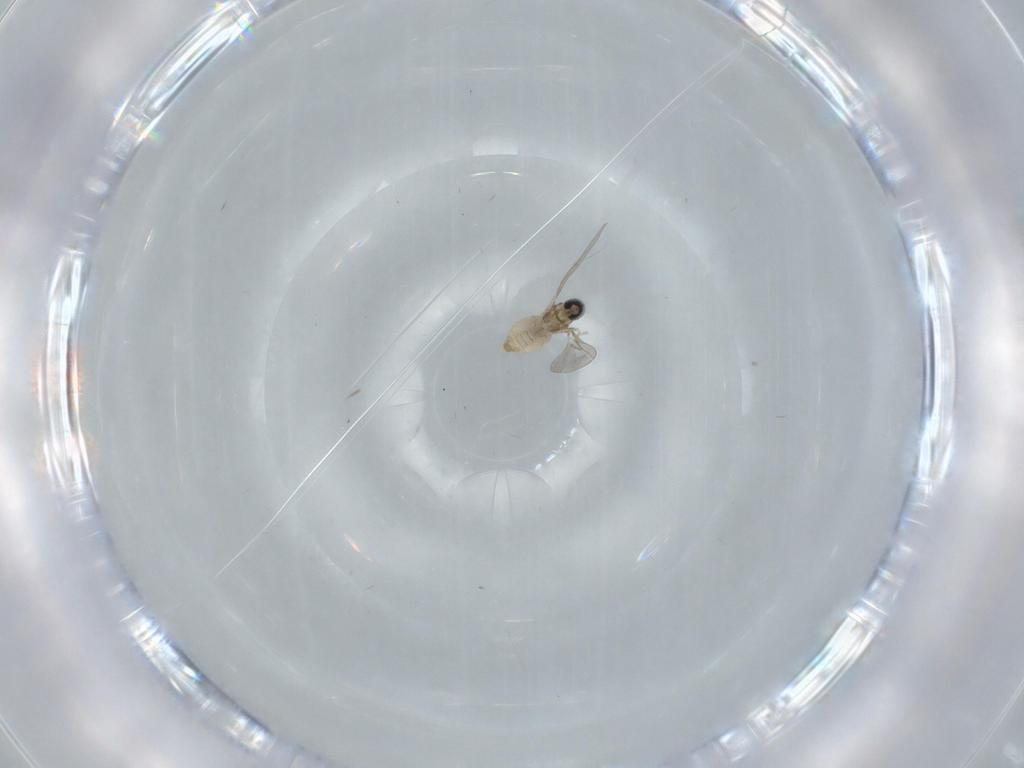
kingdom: Animalia
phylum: Arthropoda
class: Insecta
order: Diptera
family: Cecidomyiidae
